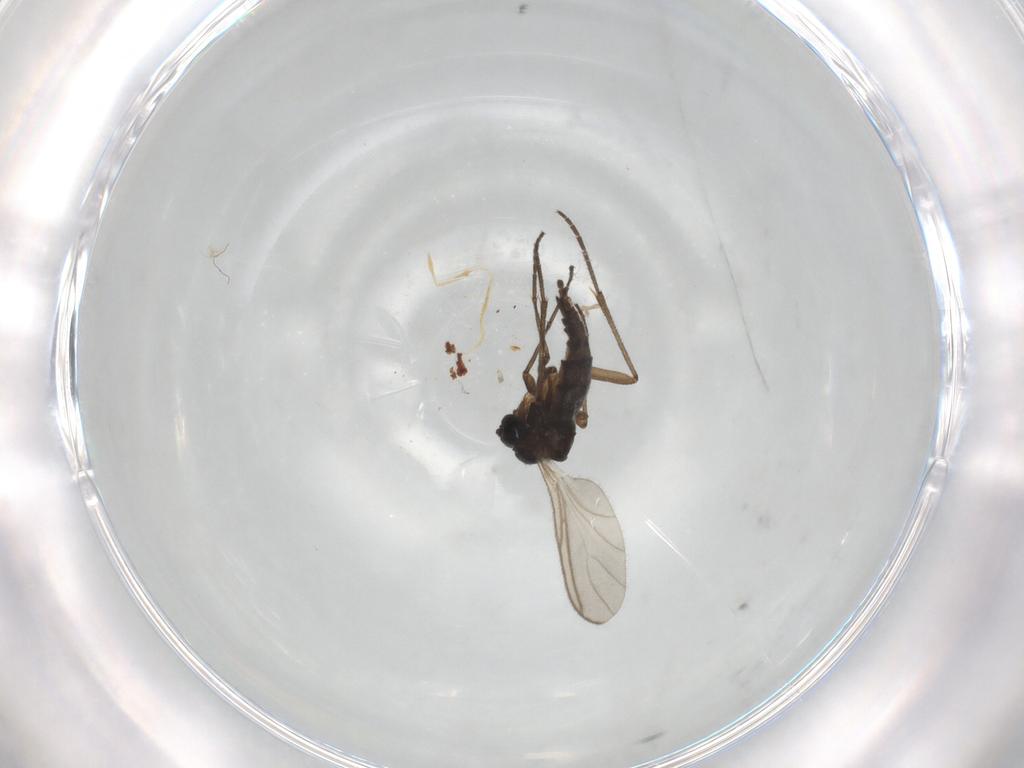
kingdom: Animalia
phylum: Arthropoda
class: Insecta
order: Diptera
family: Sciaridae
